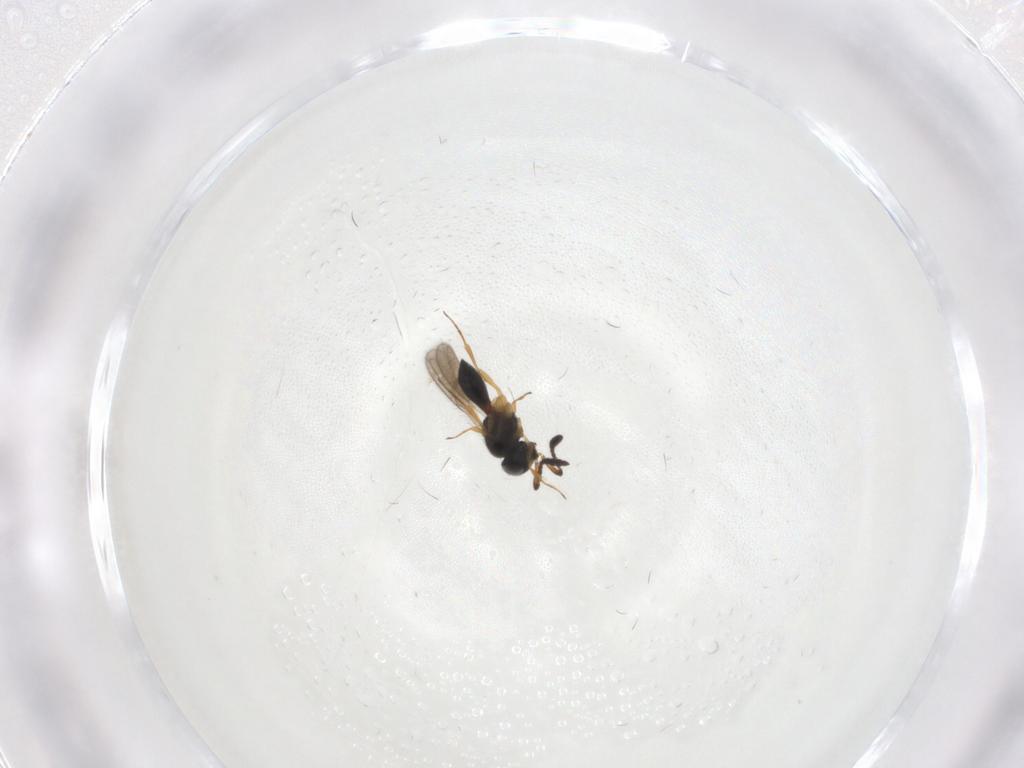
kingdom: Animalia
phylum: Arthropoda
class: Insecta
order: Hymenoptera
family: Scelionidae
